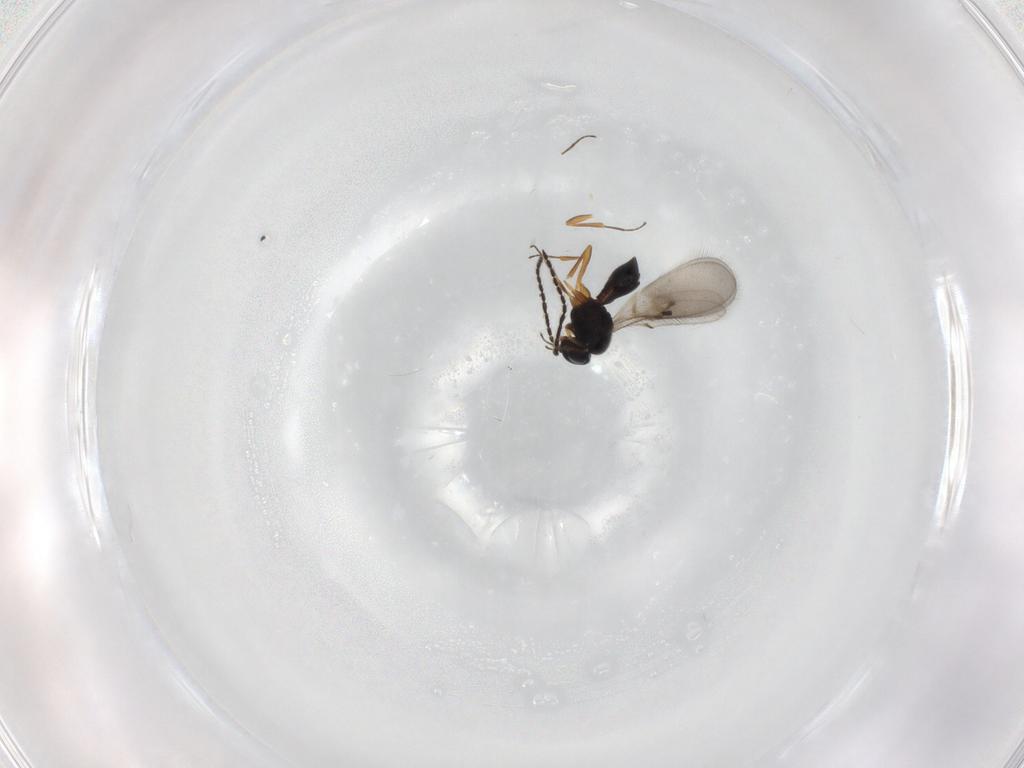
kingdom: Animalia
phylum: Arthropoda
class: Insecta
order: Hymenoptera
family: Scelionidae
